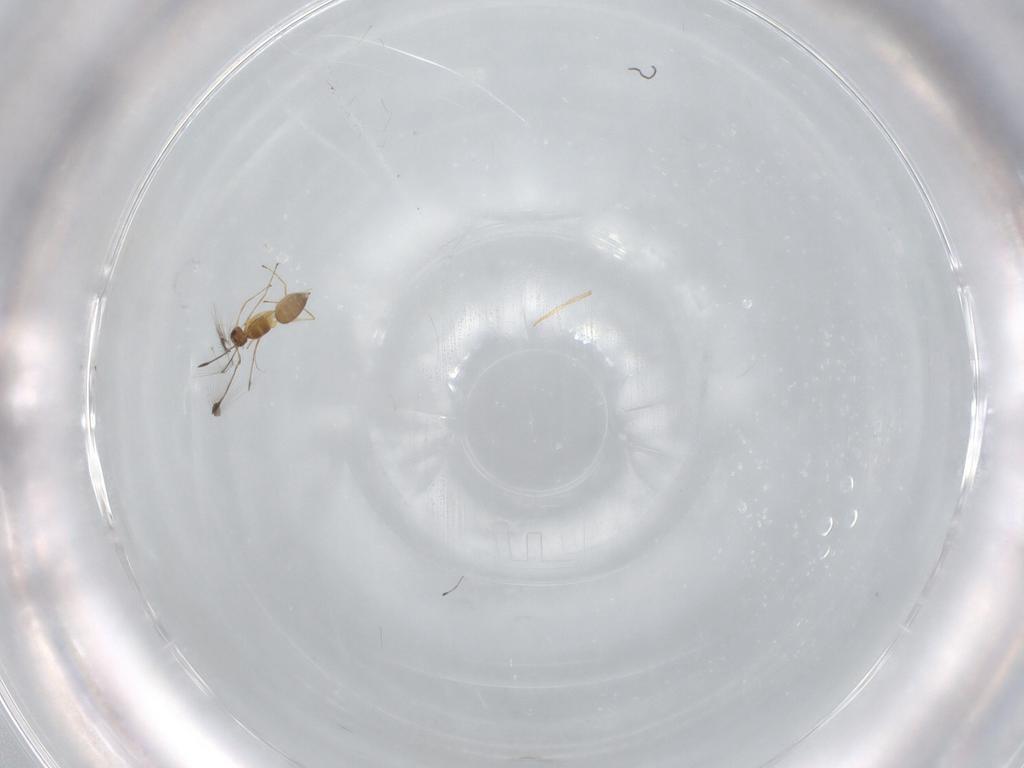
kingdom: Animalia
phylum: Arthropoda
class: Insecta
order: Hymenoptera
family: Mymaridae
